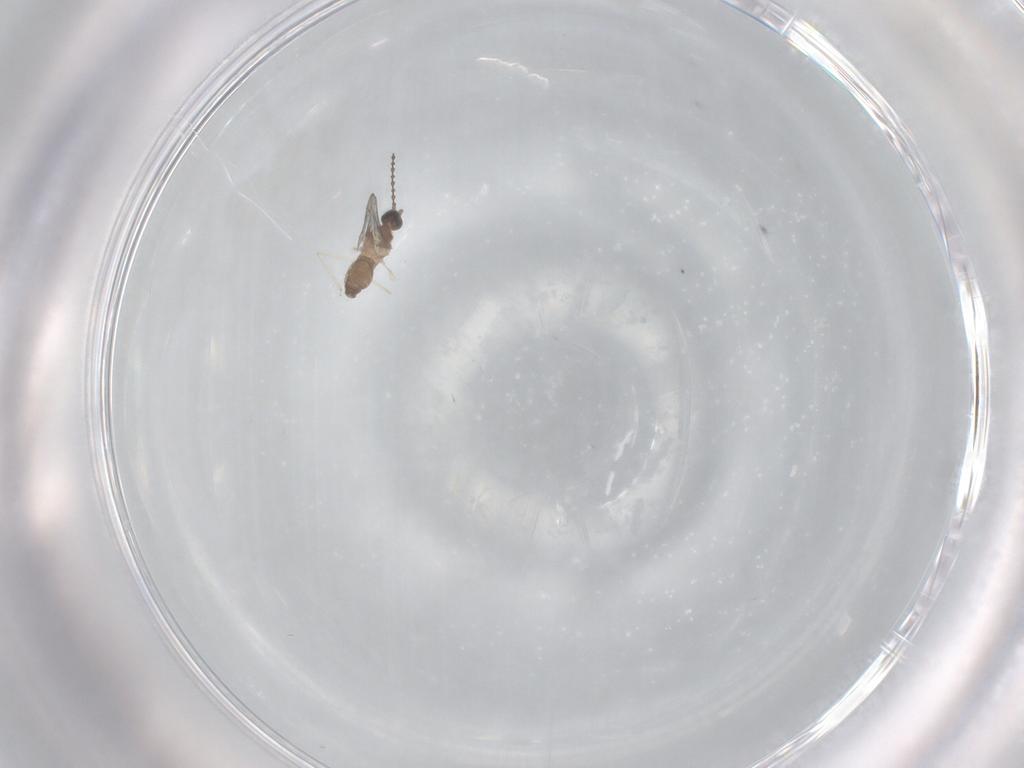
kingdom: Animalia
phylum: Arthropoda
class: Insecta
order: Diptera
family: Cecidomyiidae
